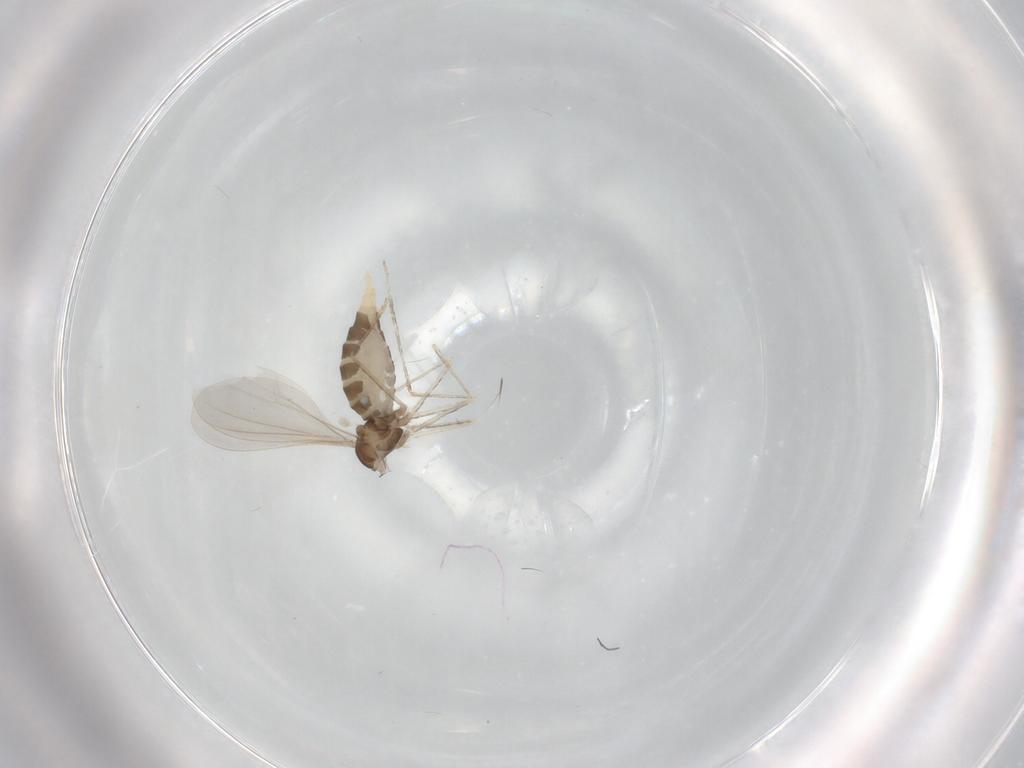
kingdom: Animalia
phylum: Arthropoda
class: Insecta
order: Diptera
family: Cecidomyiidae
